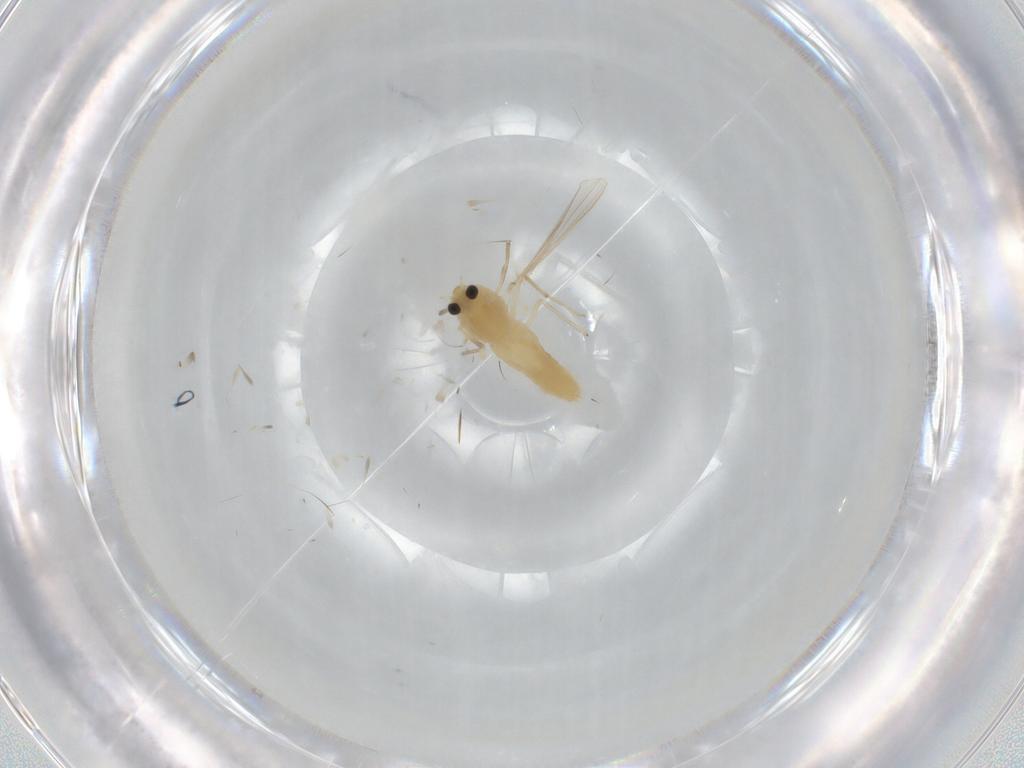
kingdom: Animalia
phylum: Arthropoda
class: Insecta
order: Diptera
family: Chironomidae
